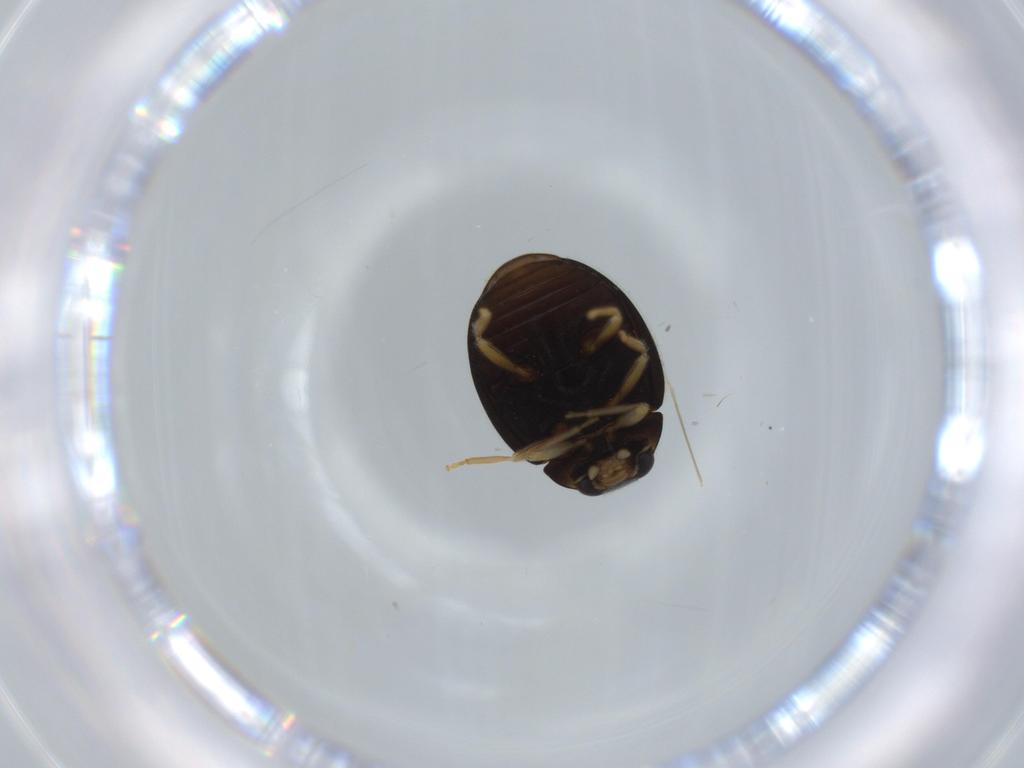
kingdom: Animalia
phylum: Arthropoda
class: Insecta
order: Coleoptera
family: Coccinellidae
